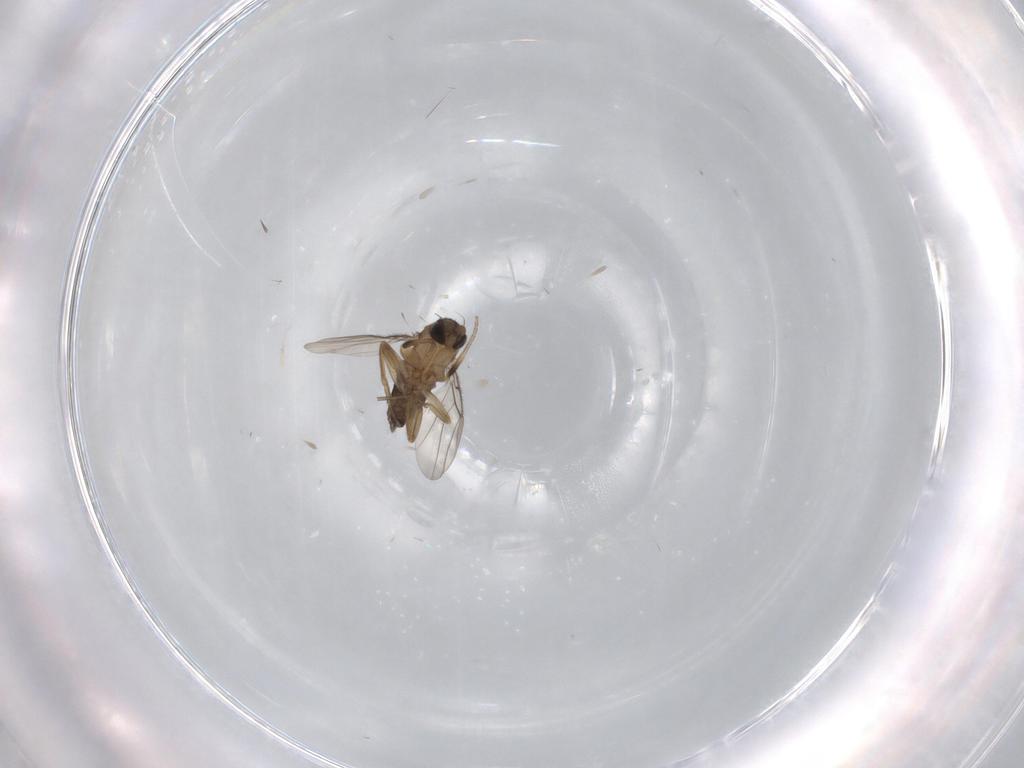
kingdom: Animalia
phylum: Arthropoda
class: Insecta
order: Diptera
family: Phoridae
